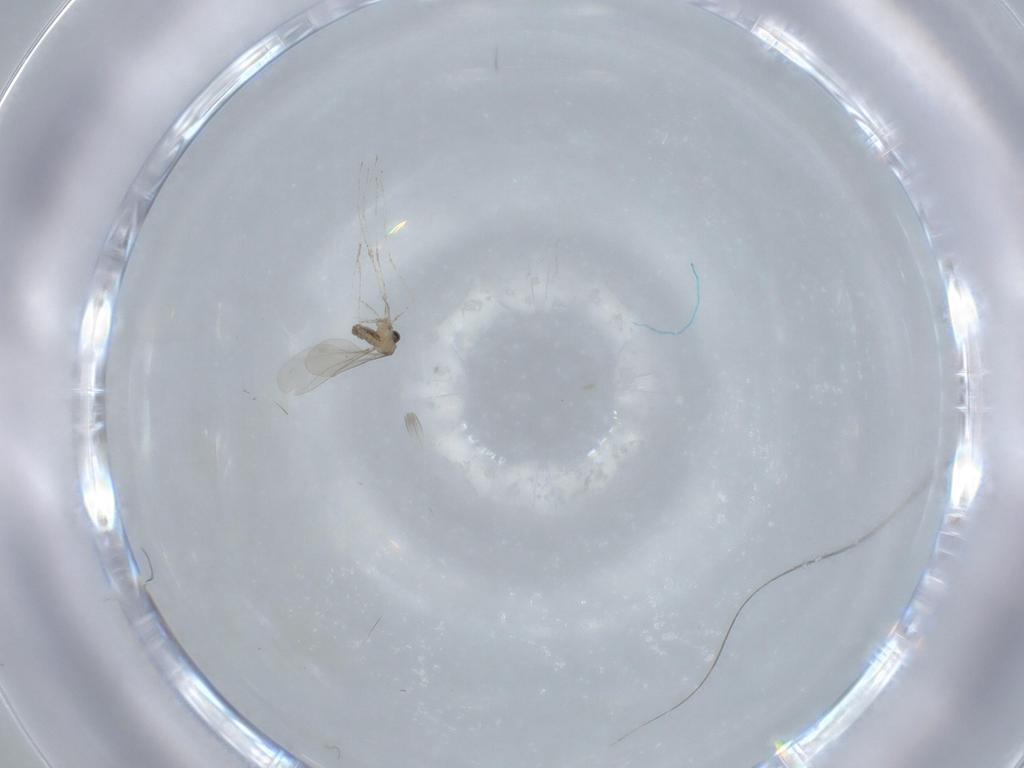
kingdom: Animalia
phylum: Arthropoda
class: Insecta
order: Diptera
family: Cecidomyiidae
